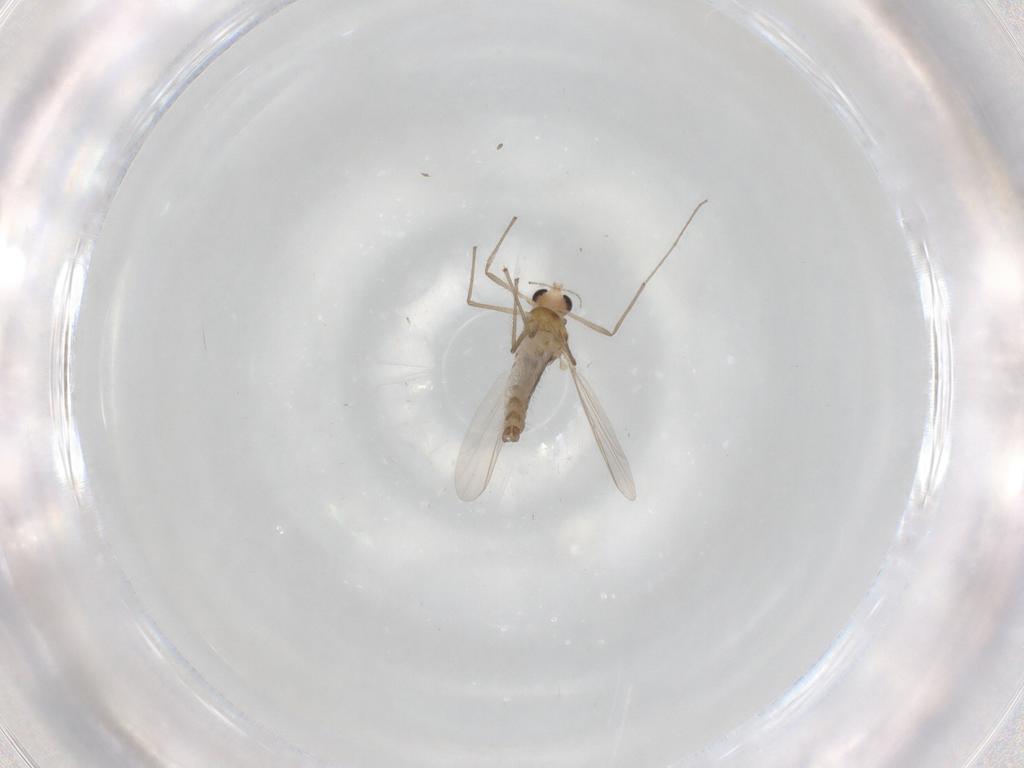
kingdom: Animalia
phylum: Arthropoda
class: Insecta
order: Diptera
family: Chironomidae
